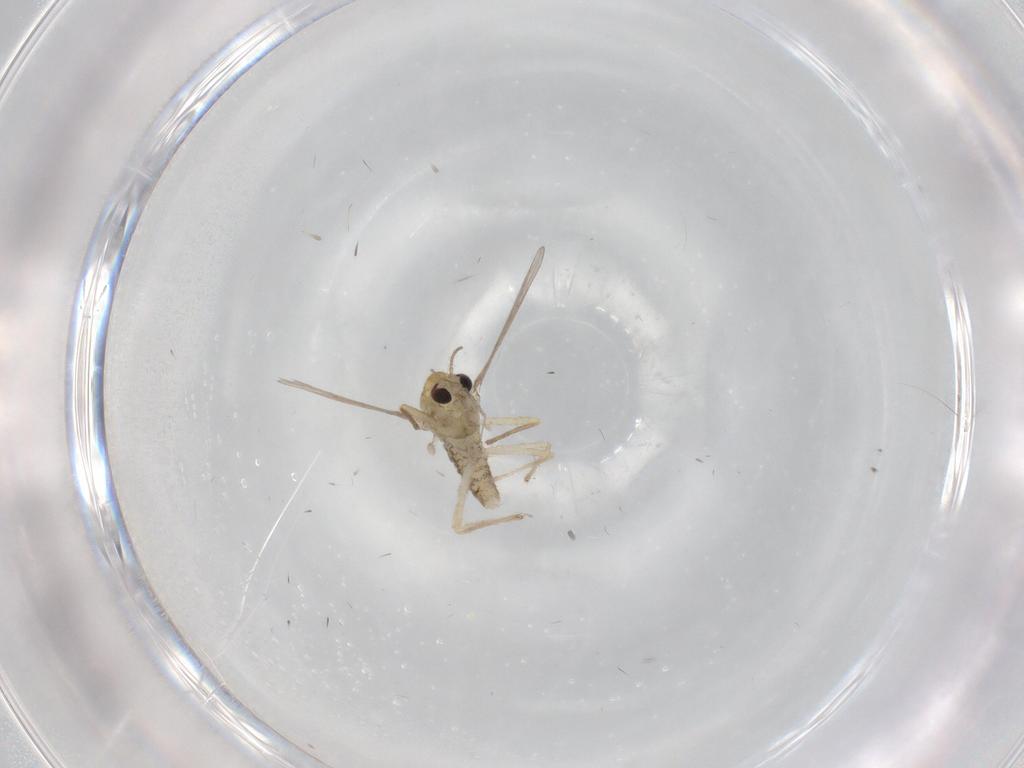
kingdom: Animalia
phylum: Arthropoda
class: Insecta
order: Diptera
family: Chironomidae
